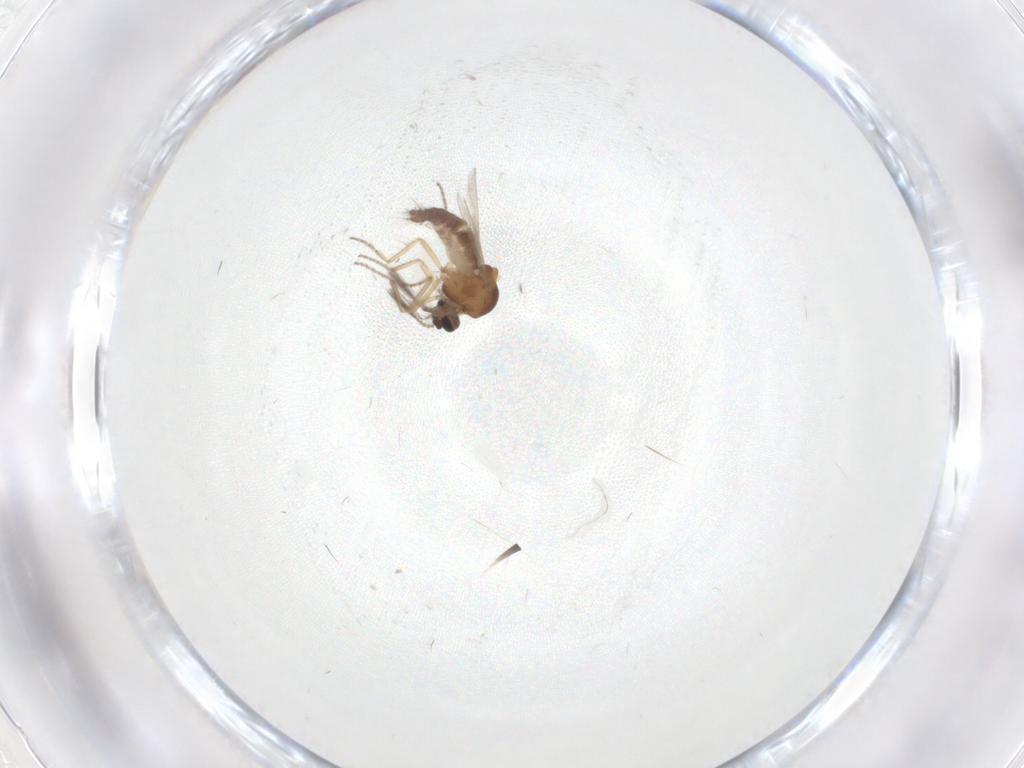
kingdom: Animalia
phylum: Arthropoda
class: Insecta
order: Diptera
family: Ceratopogonidae
